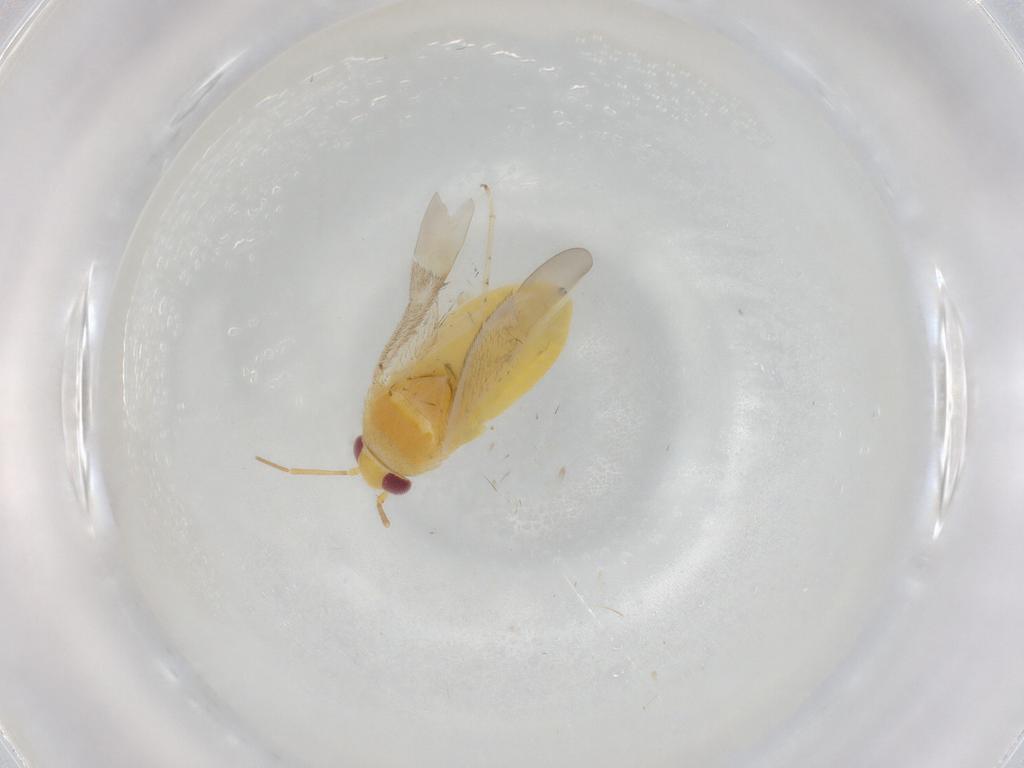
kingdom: Animalia
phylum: Arthropoda
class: Insecta
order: Hemiptera
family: Miridae
